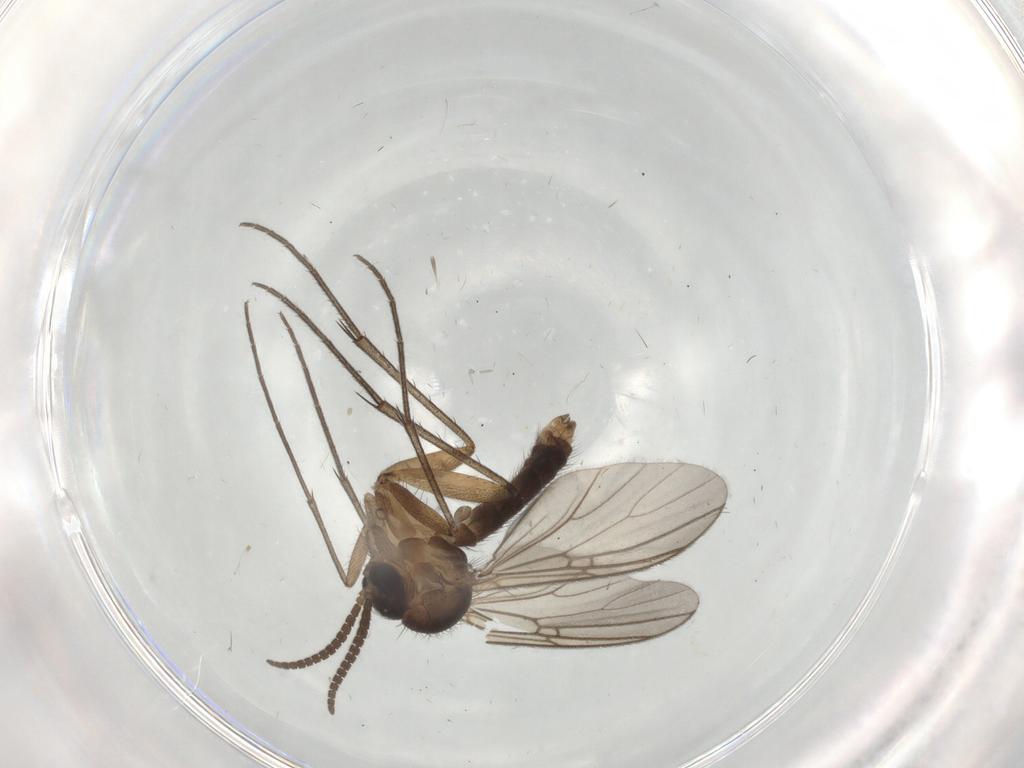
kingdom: Animalia
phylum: Arthropoda
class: Insecta
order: Diptera
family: Mycetophilidae
